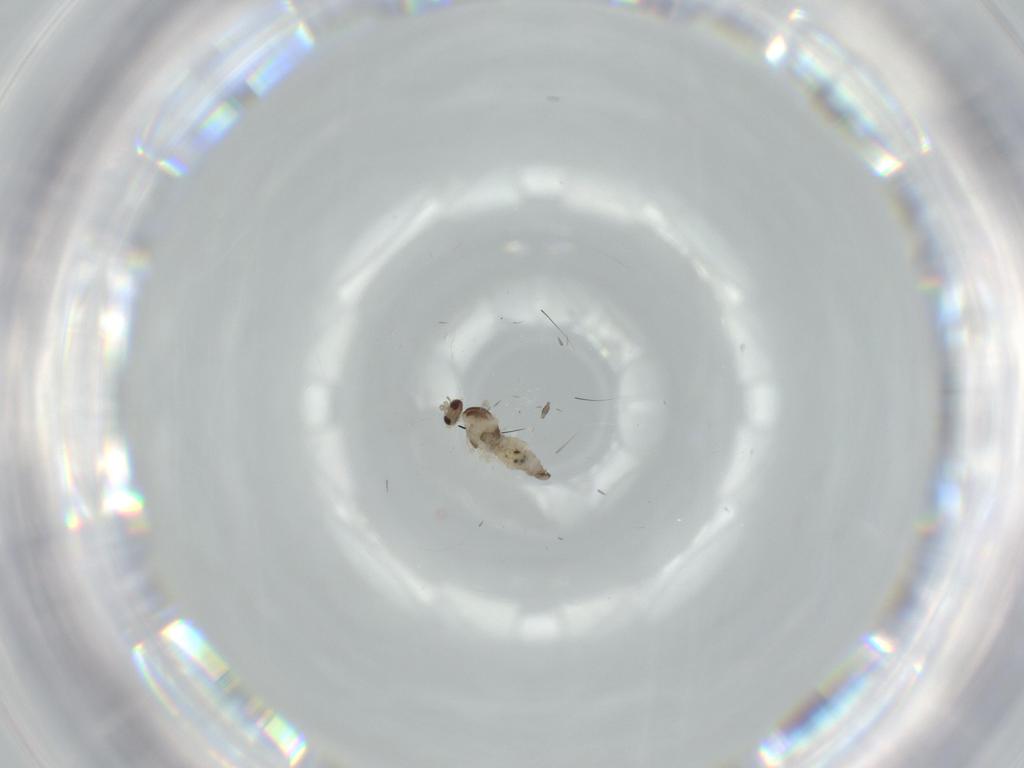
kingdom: Animalia
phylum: Arthropoda
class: Insecta
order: Diptera
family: Cecidomyiidae
